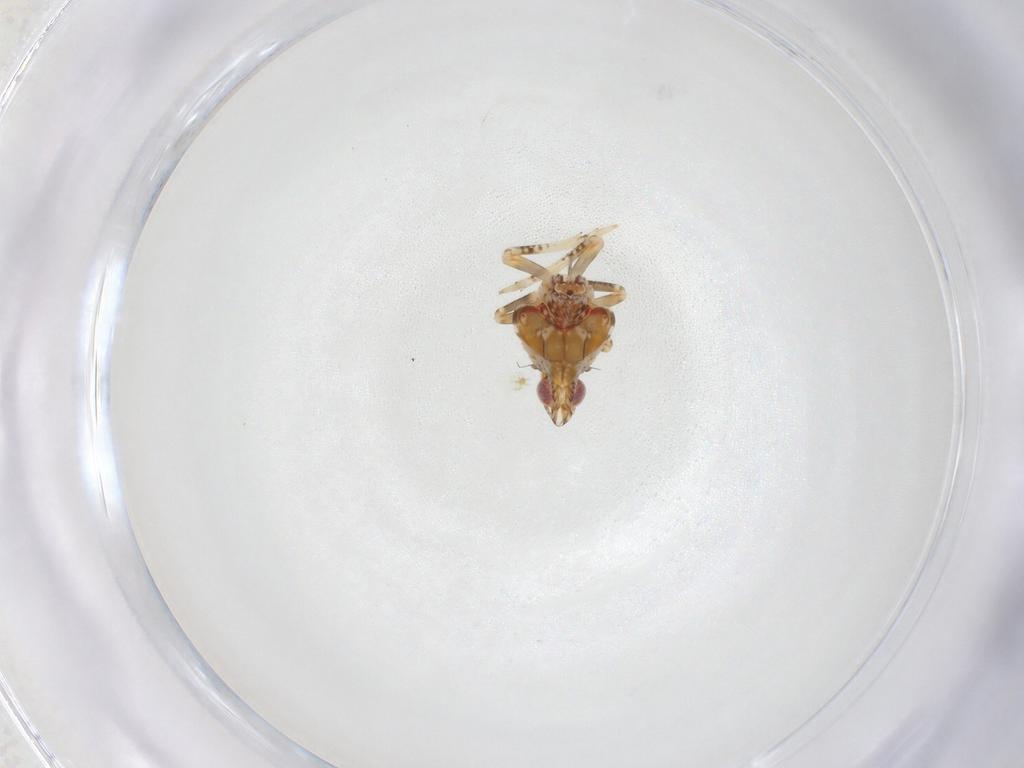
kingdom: Animalia
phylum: Arthropoda
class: Insecta
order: Hemiptera
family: Tropiduchidae
